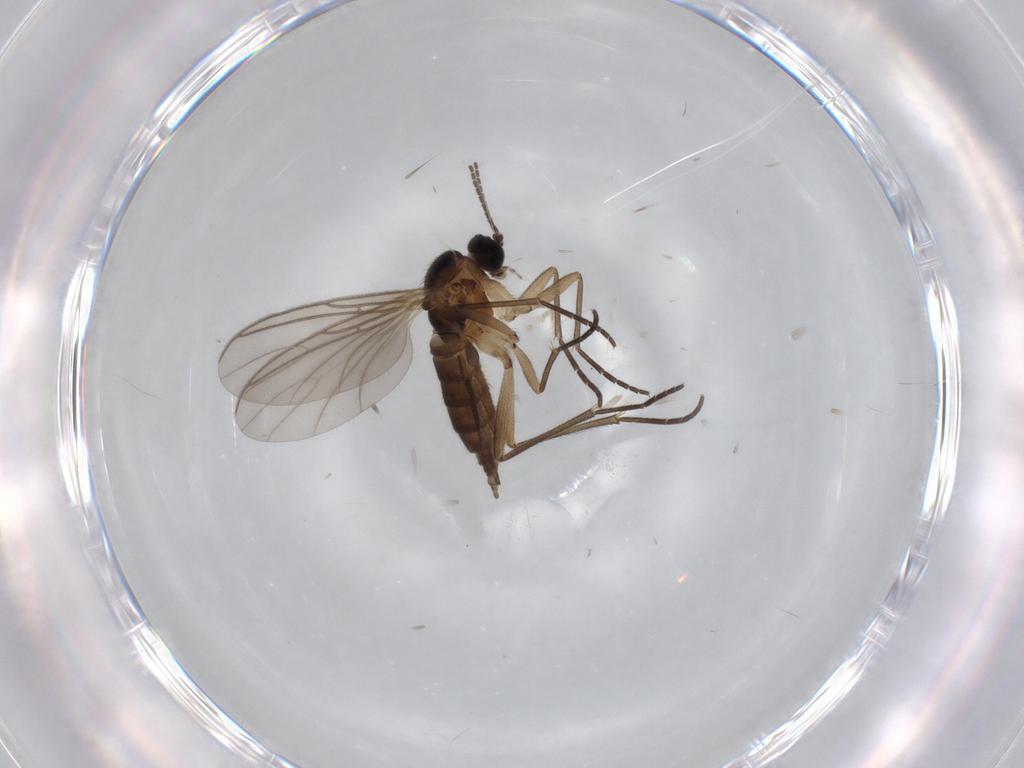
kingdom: Animalia
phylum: Arthropoda
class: Insecta
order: Diptera
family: Sciaridae
